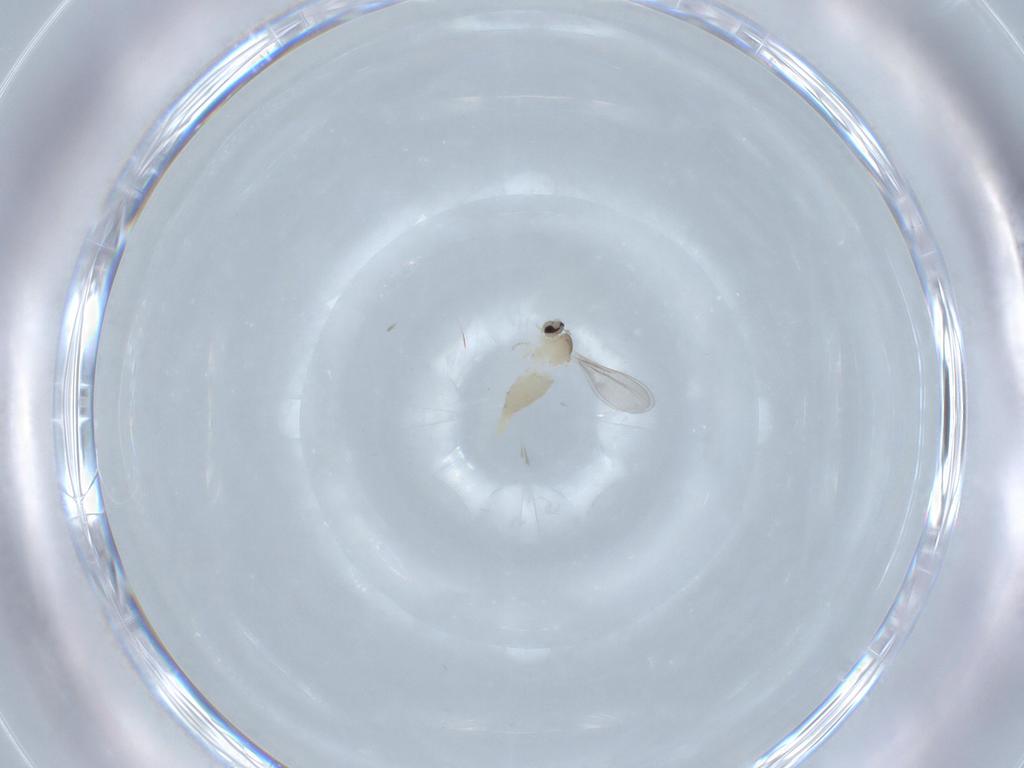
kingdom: Animalia
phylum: Arthropoda
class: Insecta
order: Diptera
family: Cecidomyiidae
